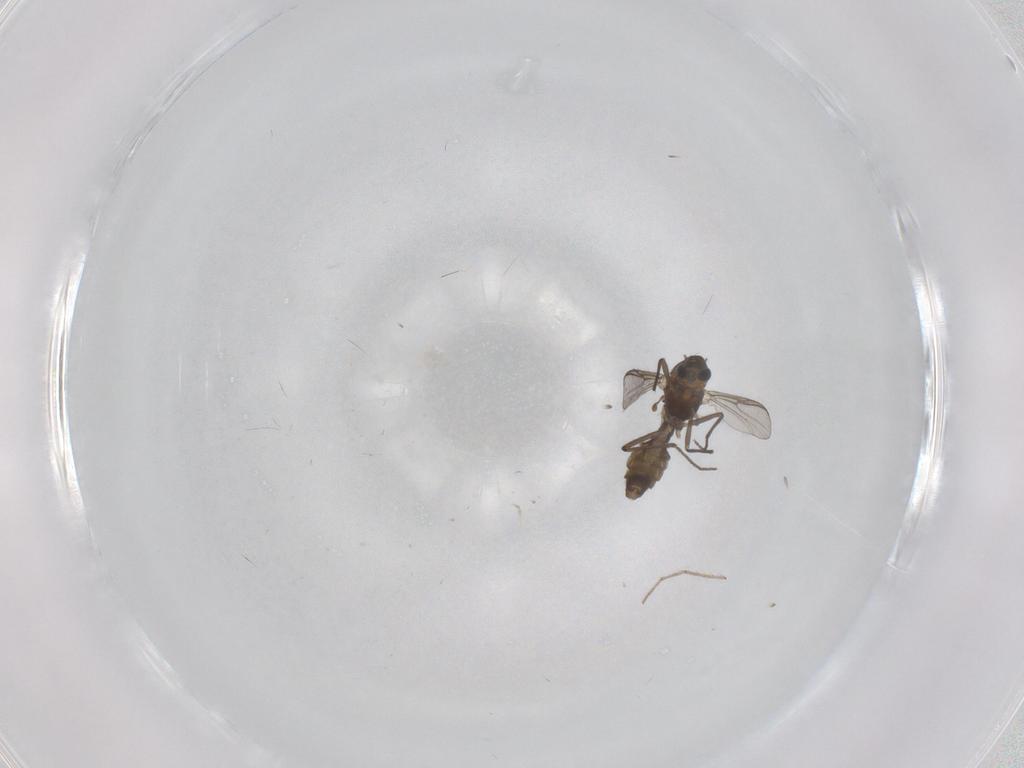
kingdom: Animalia
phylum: Arthropoda
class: Insecta
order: Diptera
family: Chironomidae
